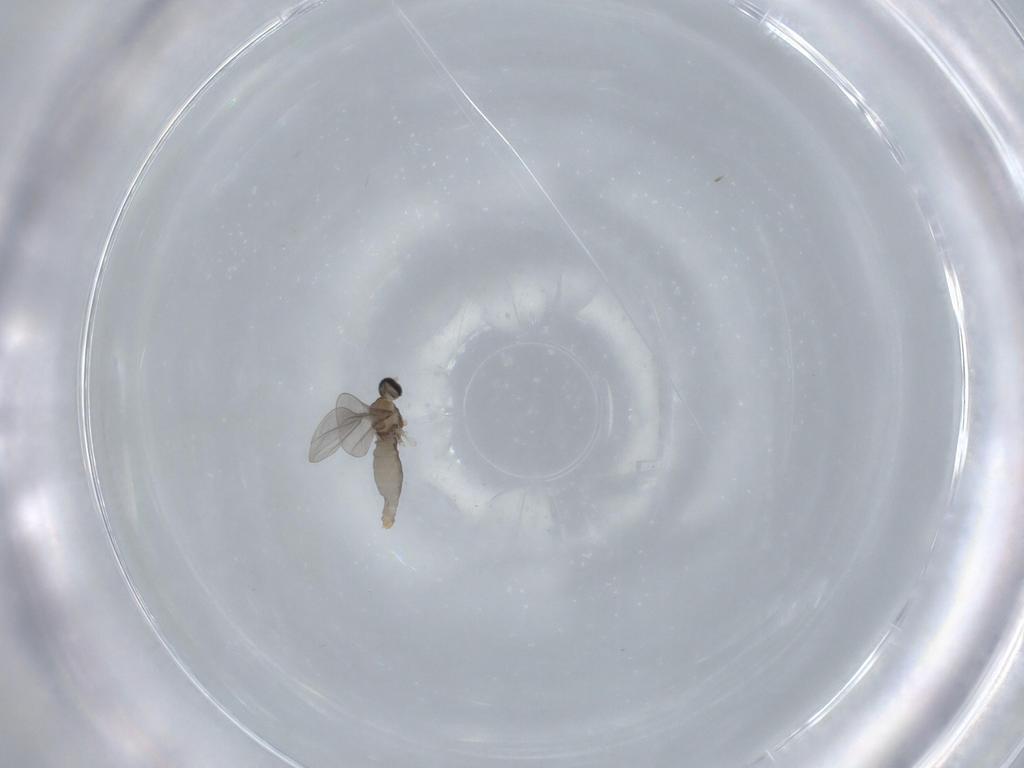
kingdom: Animalia
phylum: Arthropoda
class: Insecta
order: Diptera
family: Cecidomyiidae
